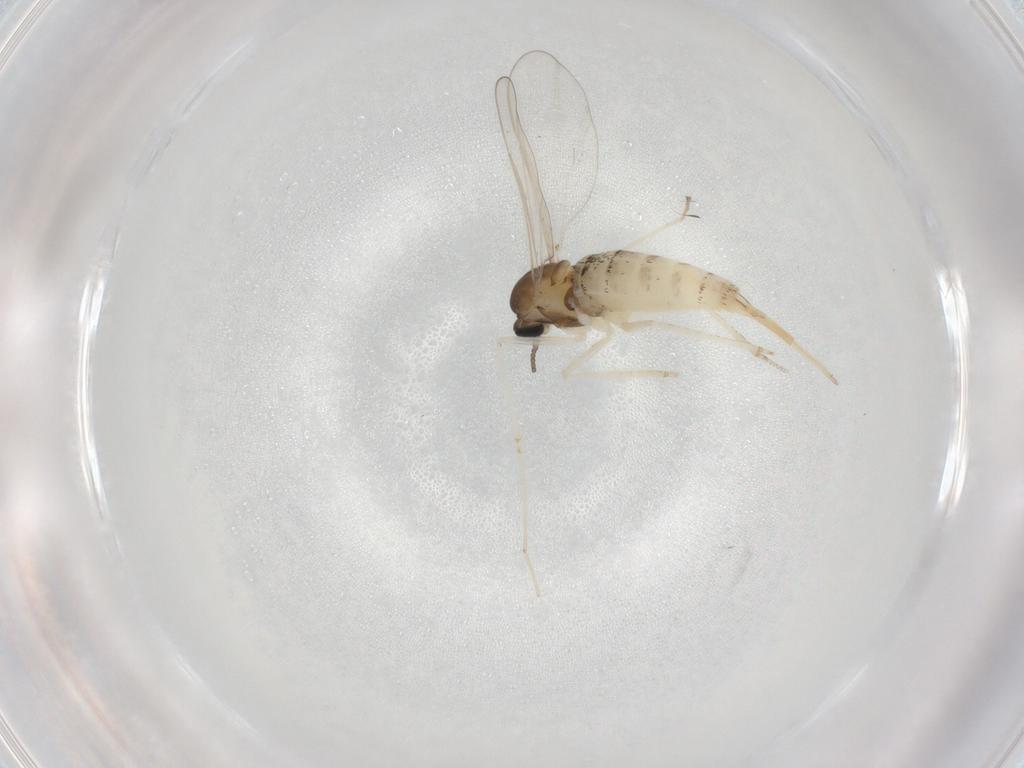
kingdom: Animalia
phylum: Arthropoda
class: Insecta
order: Diptera
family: Cecidomyiidae
